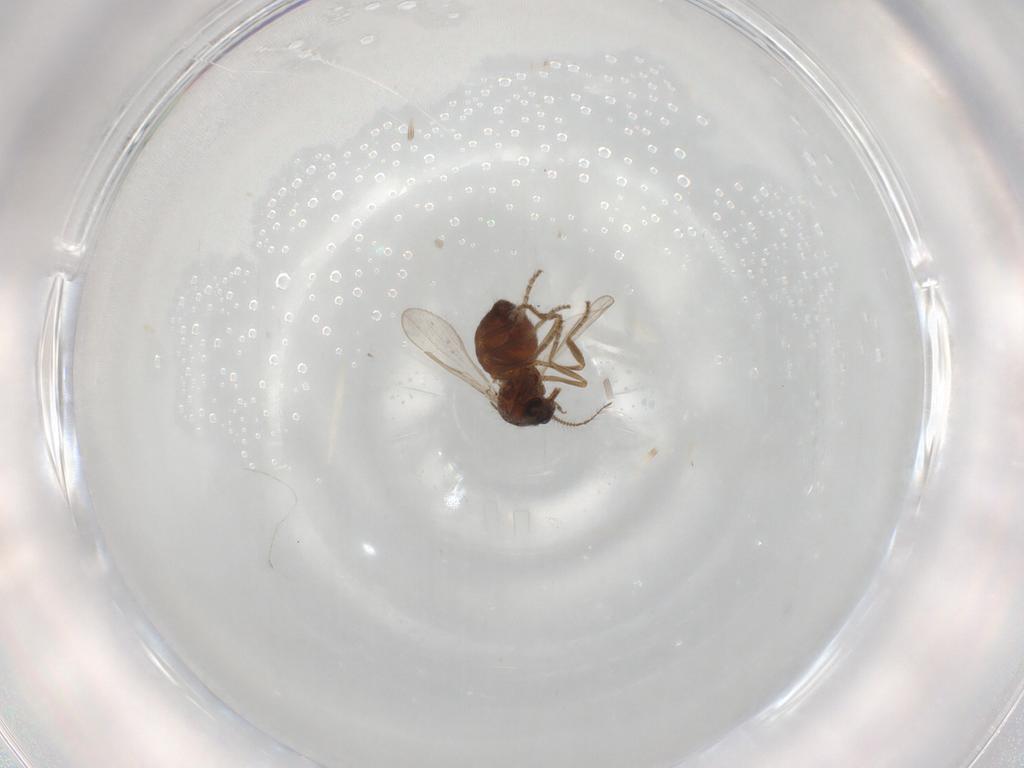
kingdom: Animalia
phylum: Arthropoda
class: Insecta
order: Diptera
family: Ceratopogonidae
